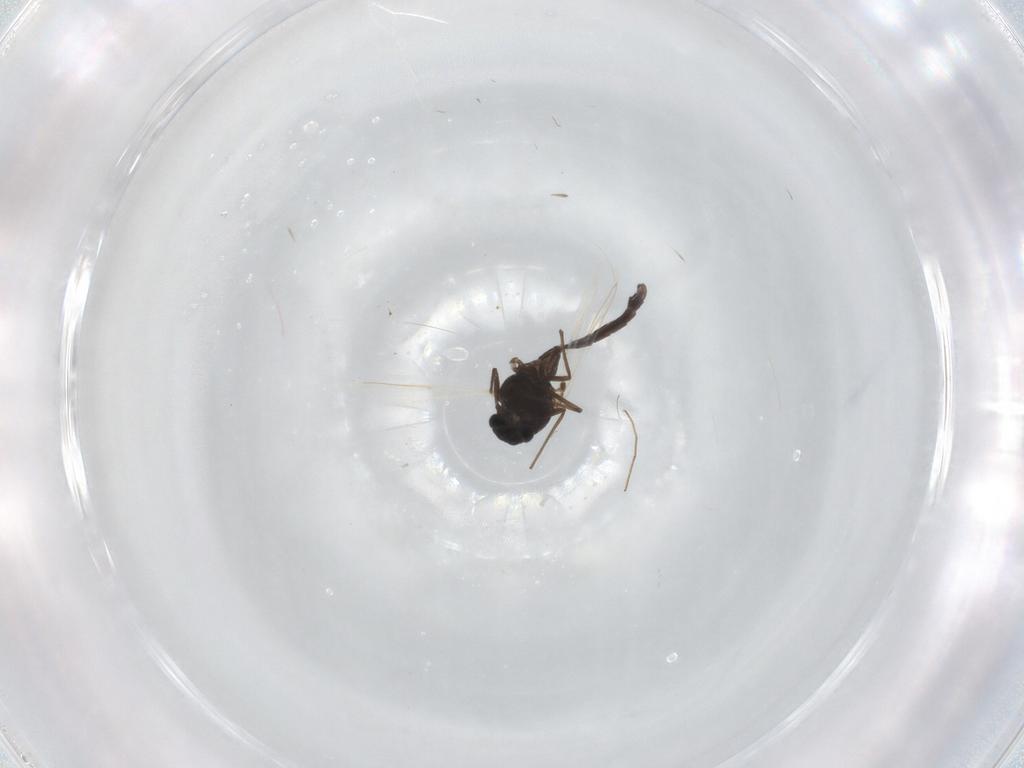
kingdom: Animalia
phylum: Arthropoda
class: Insecta
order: Diptera
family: Chironomidae
